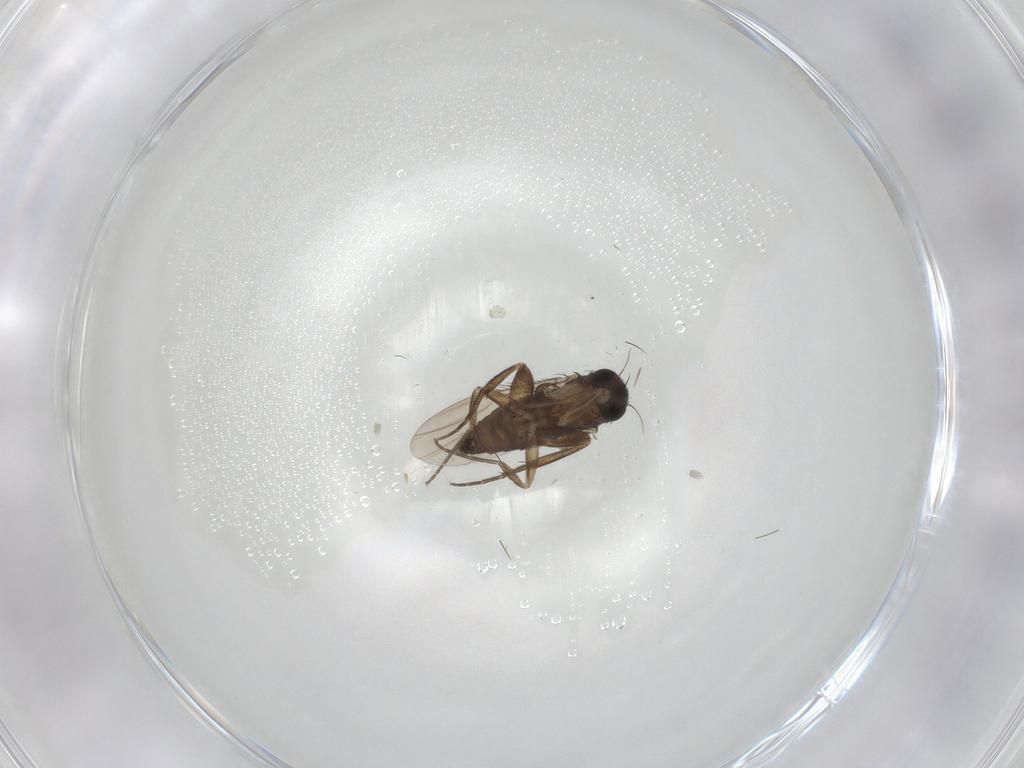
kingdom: Animalia
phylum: Arthropoda
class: Insecta
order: Diptera
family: Phoridae
